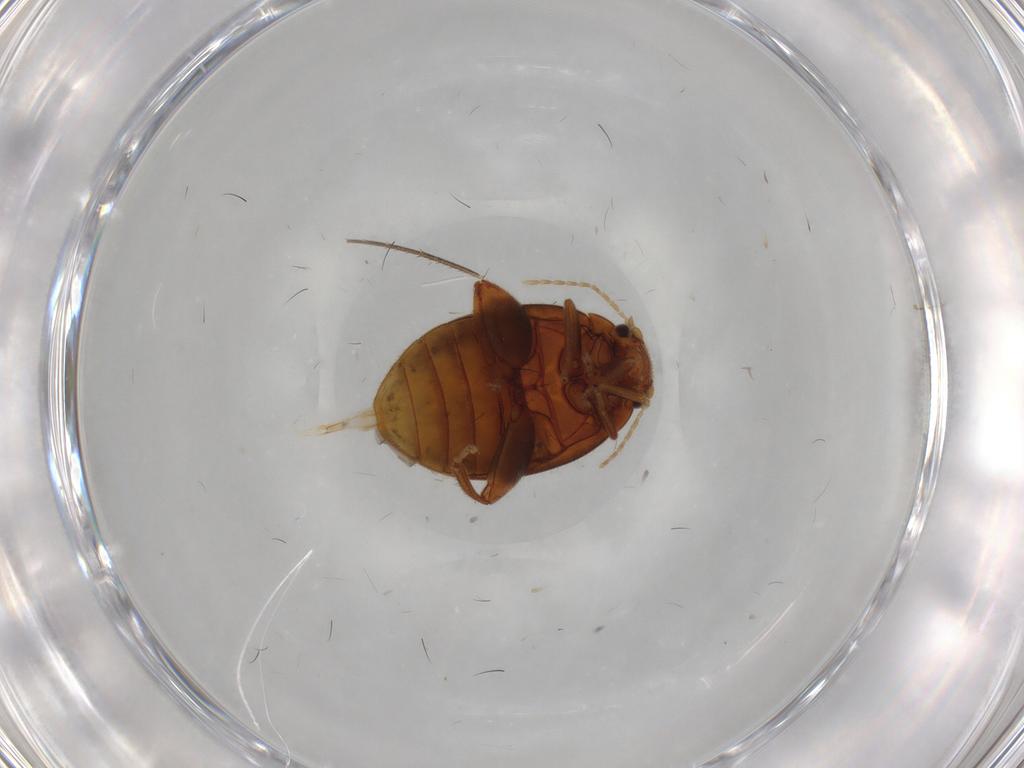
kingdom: Animalia
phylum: Arthropoda
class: Insecta
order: Coleoptera
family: Scirtidae
